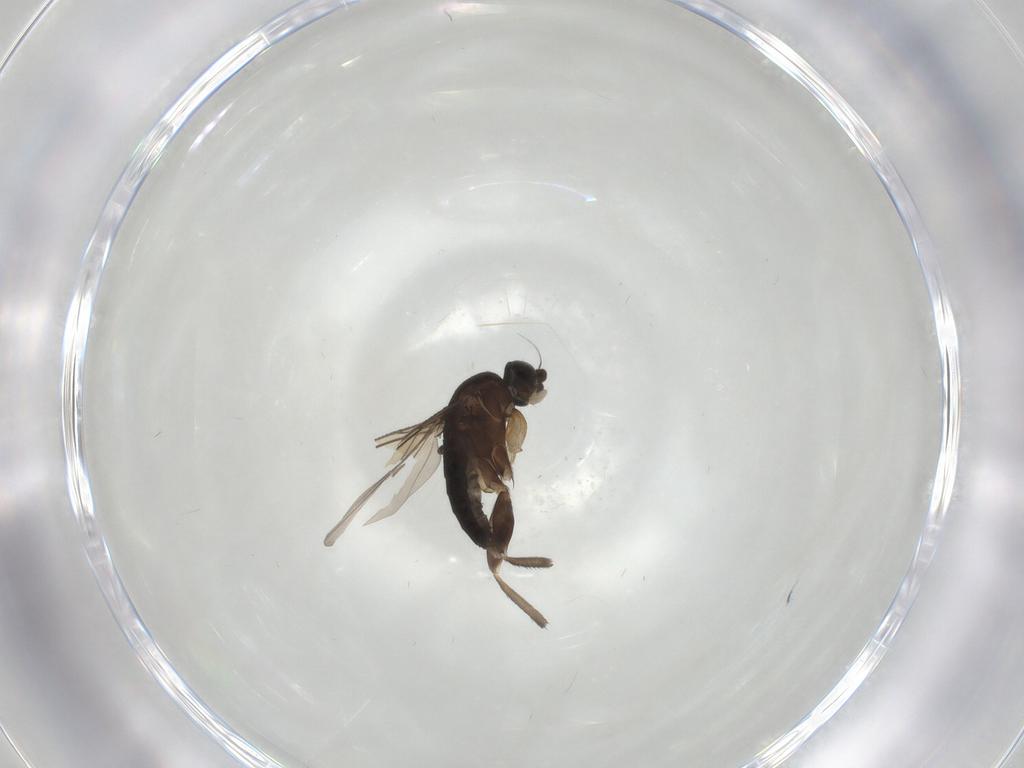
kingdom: Animalia
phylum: Arthropoda
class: Insecta
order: Diptera
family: Phoridae
